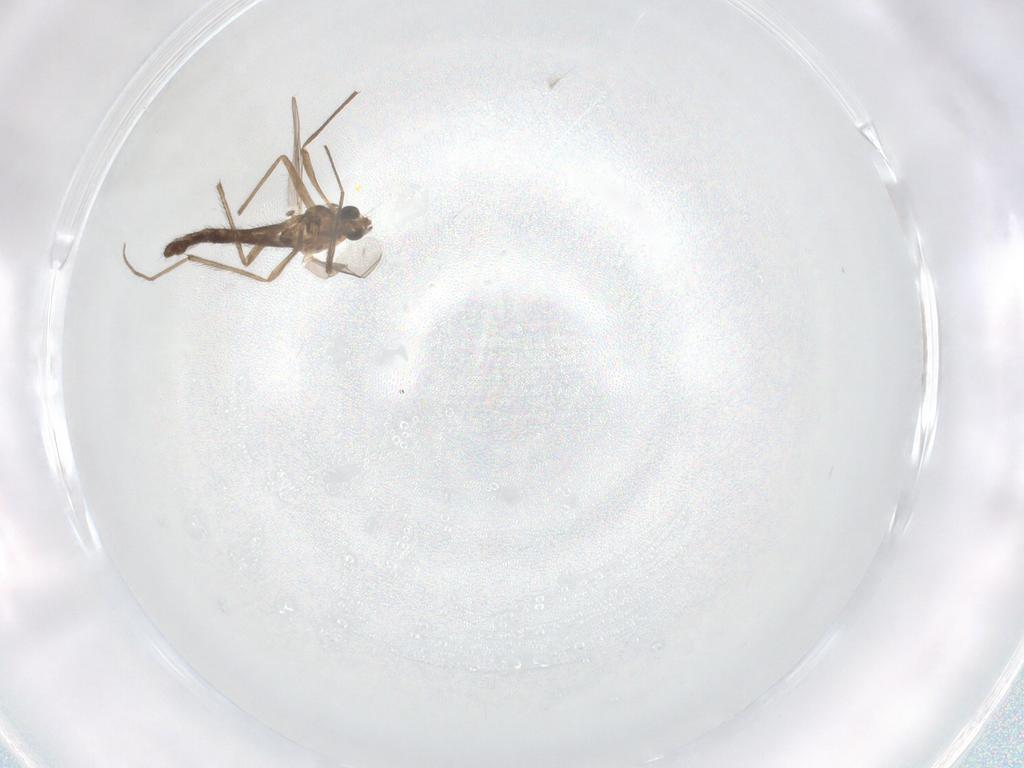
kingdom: Animalia
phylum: Arthropoda
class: Insecta
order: Diptera
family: Chironomidae
